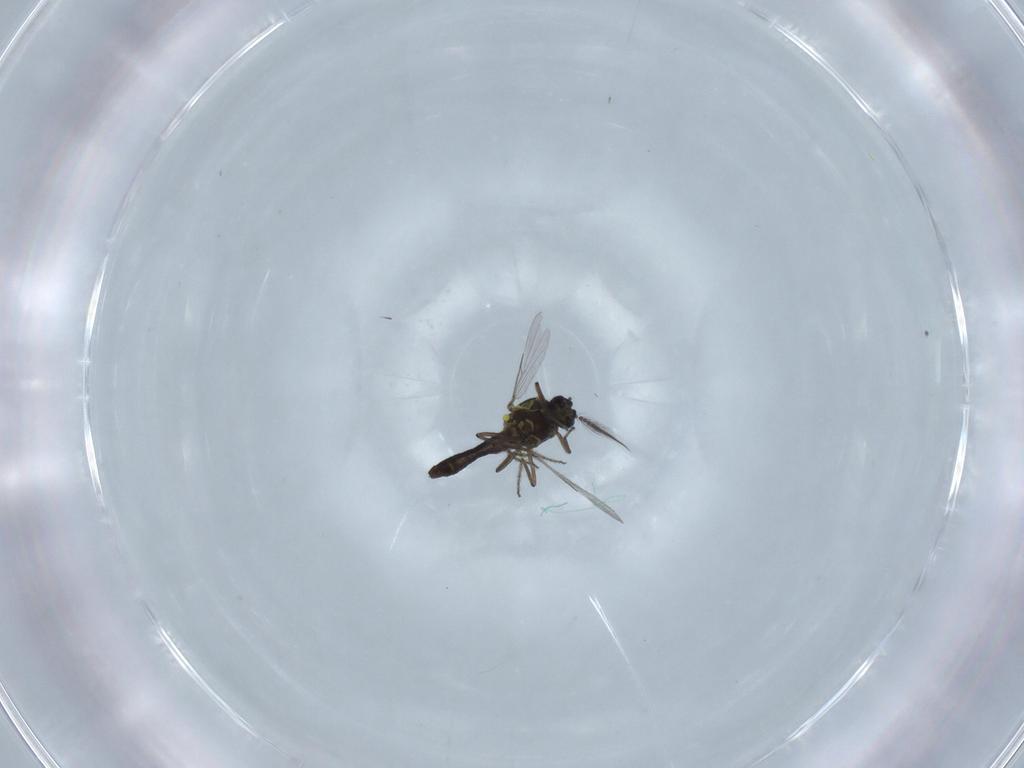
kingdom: Animalia
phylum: Arthropoda
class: Insecta
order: Diptera
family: Ceratopogonidae
